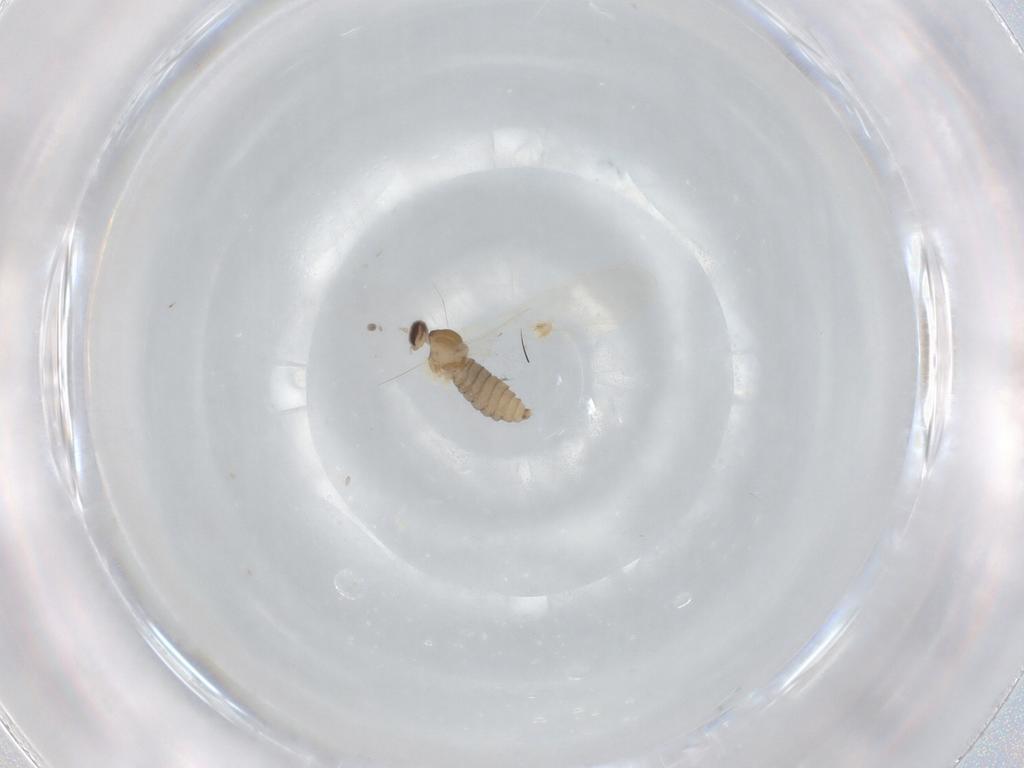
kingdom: Animalia
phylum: Arthropoda
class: Insecta
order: Diptera
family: Cecidomyiidae
